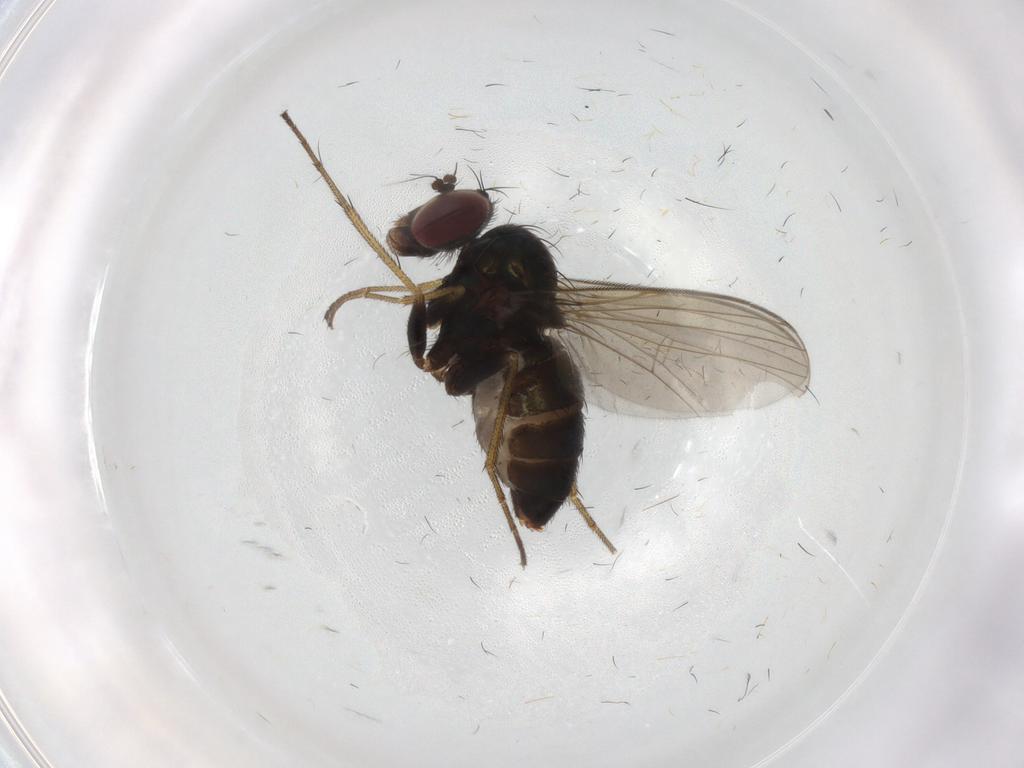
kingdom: Animalia
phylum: Arthropoda
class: Insecta
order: Diptera
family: Dolichopodidae
